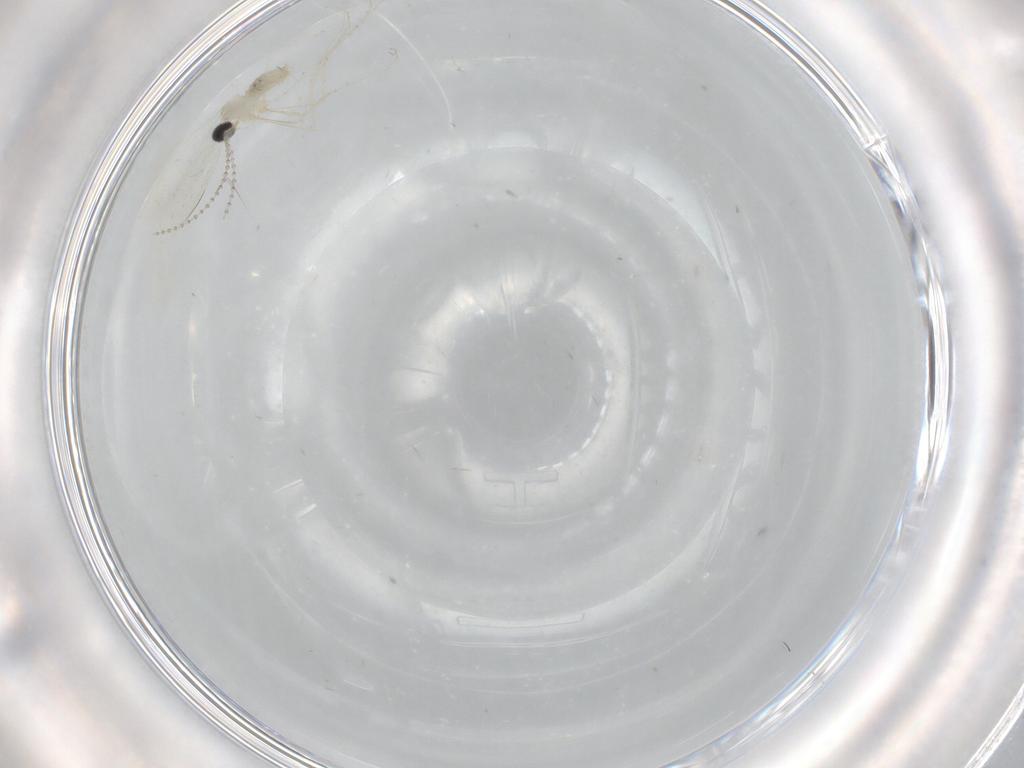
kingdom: Animalia
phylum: Arthropoda
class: Insecta
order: Diptera
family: Cecidomyiidae
